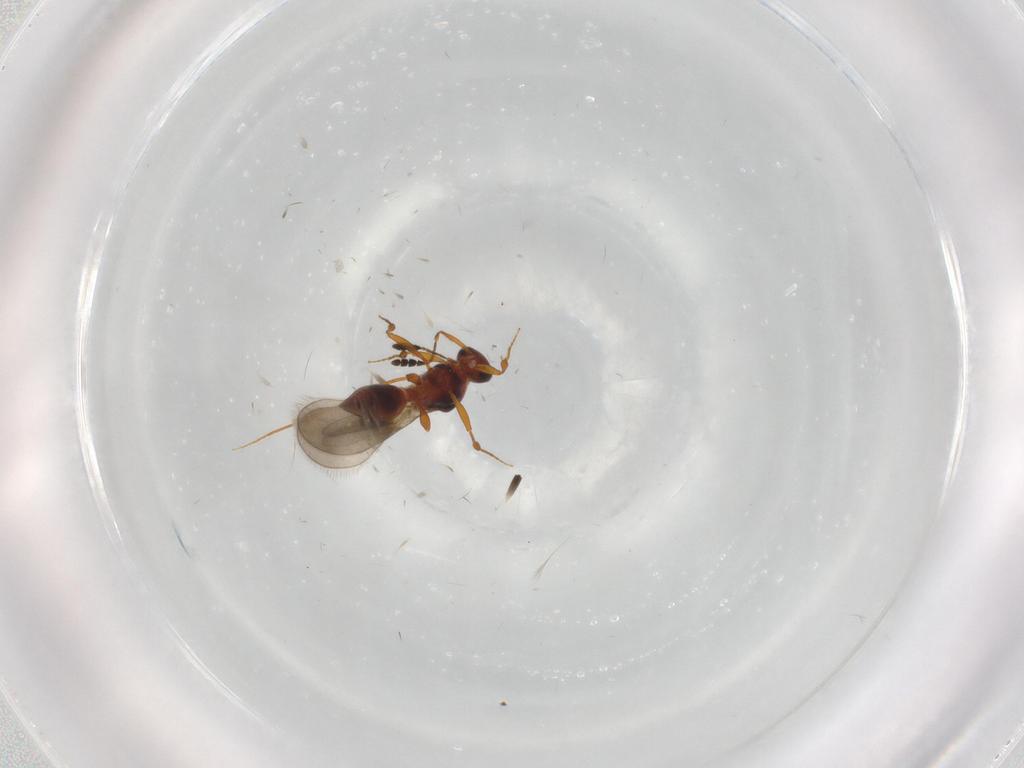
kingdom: Animalia
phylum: Arthropoda
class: Insecta
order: Hymenoptera
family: Platygastridae
